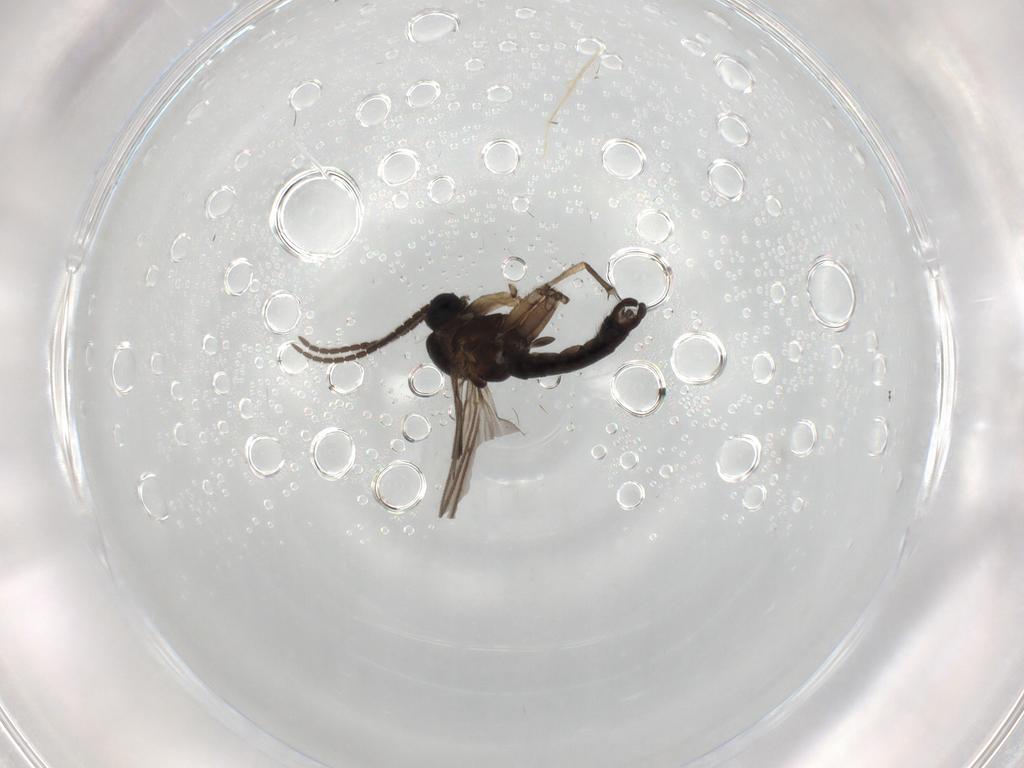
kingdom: Animalia
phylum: Arthropoda
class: Insecta
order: Diptera
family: Sciaridae
